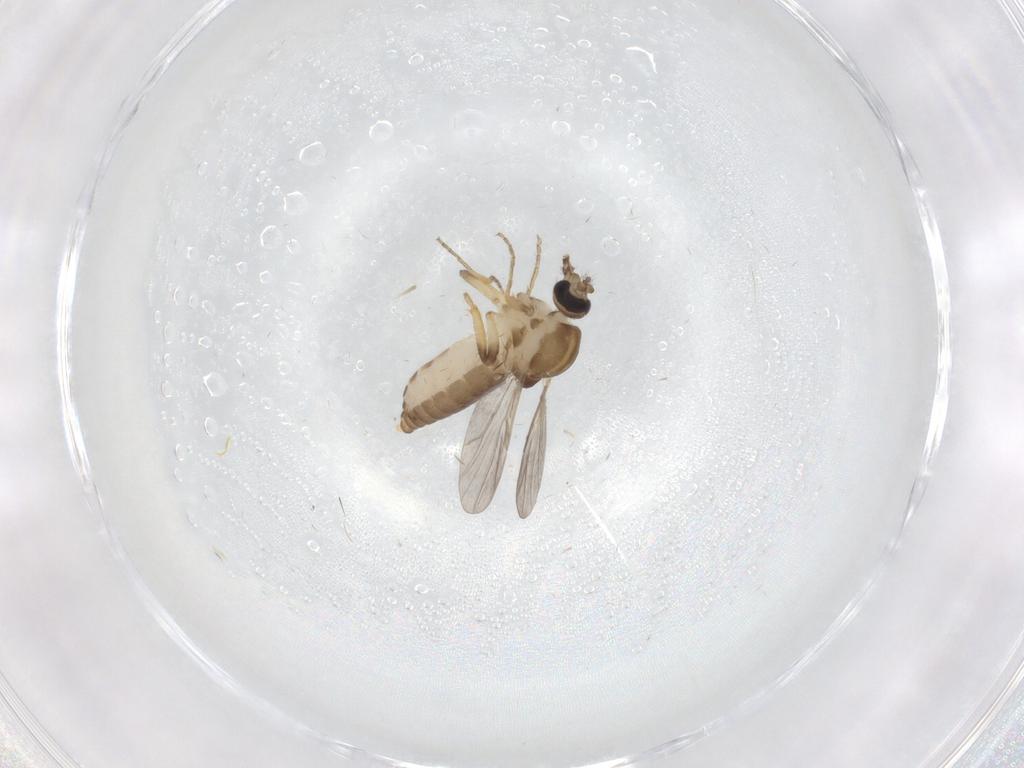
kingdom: Animalia
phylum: Arthropoda
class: Insecta
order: Diptera
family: Ceratopogonidae
